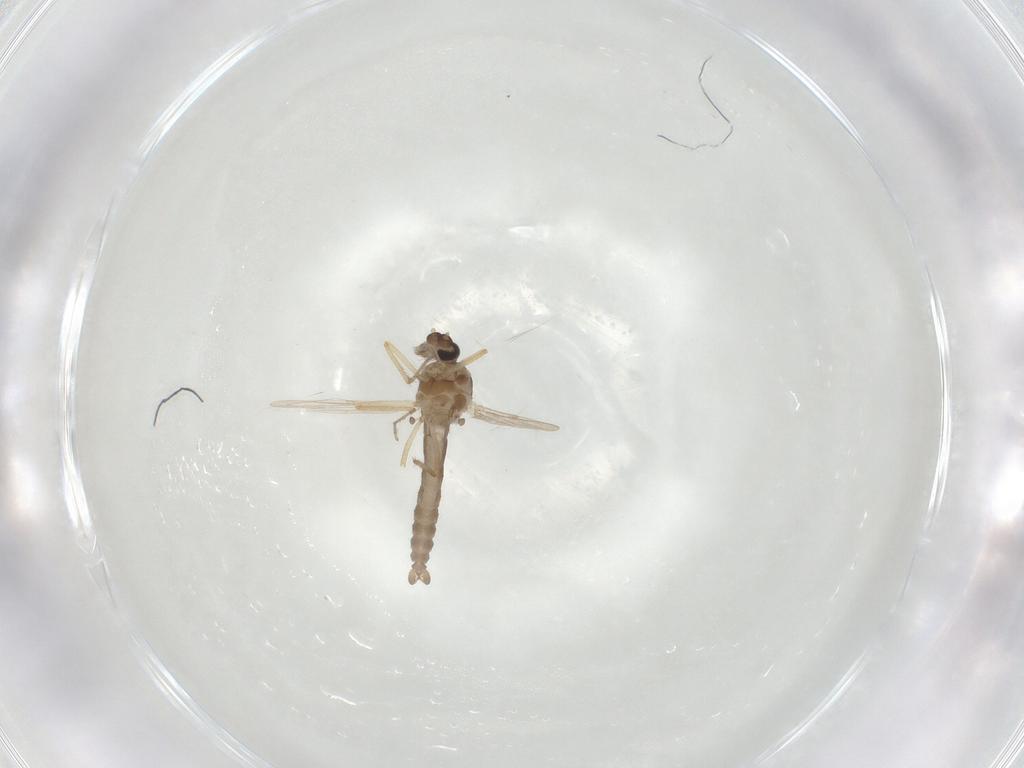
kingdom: Animalia
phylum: Arthropoda
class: Insecta
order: Diptera
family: Ceratopogonidae
